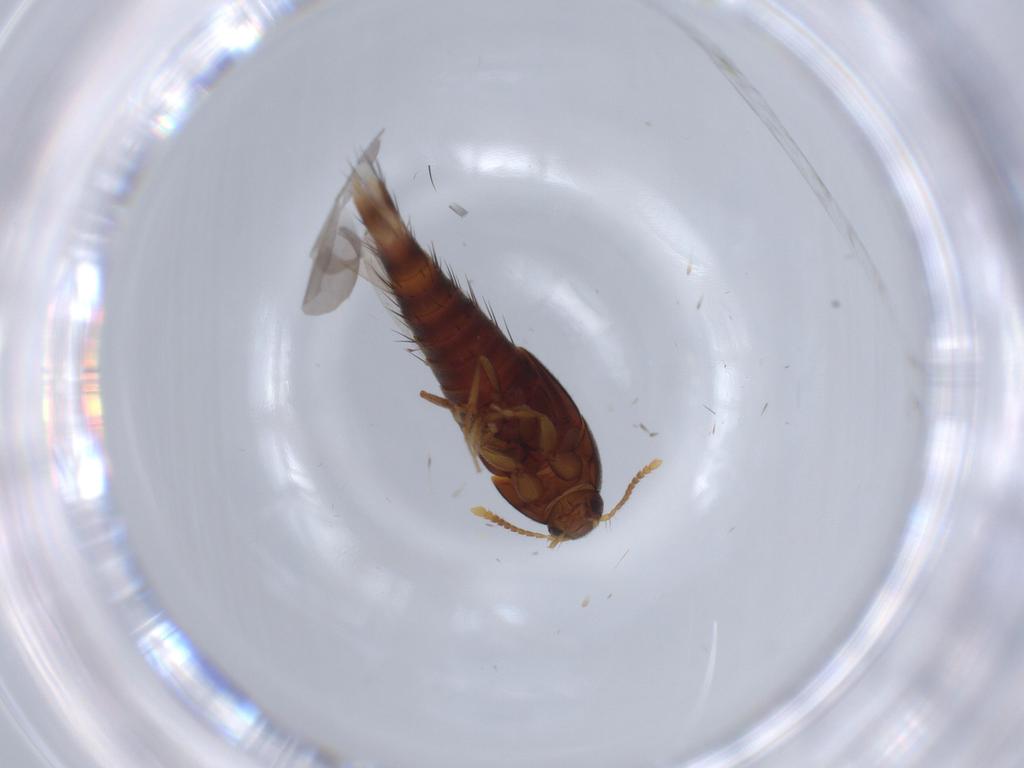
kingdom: Animalia
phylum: Arthropoda
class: Insecta
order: Coleoptera
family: Staphylinidae
